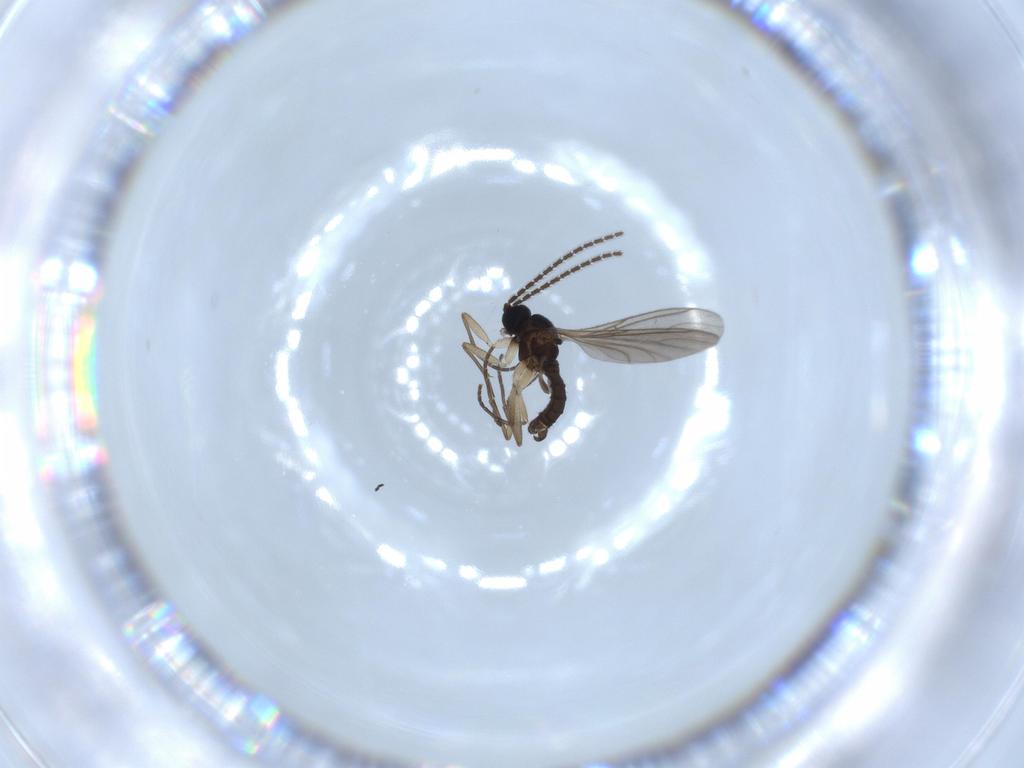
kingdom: Animalia
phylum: Arthropoda
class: Insecta
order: Diptera
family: Sciaridae
